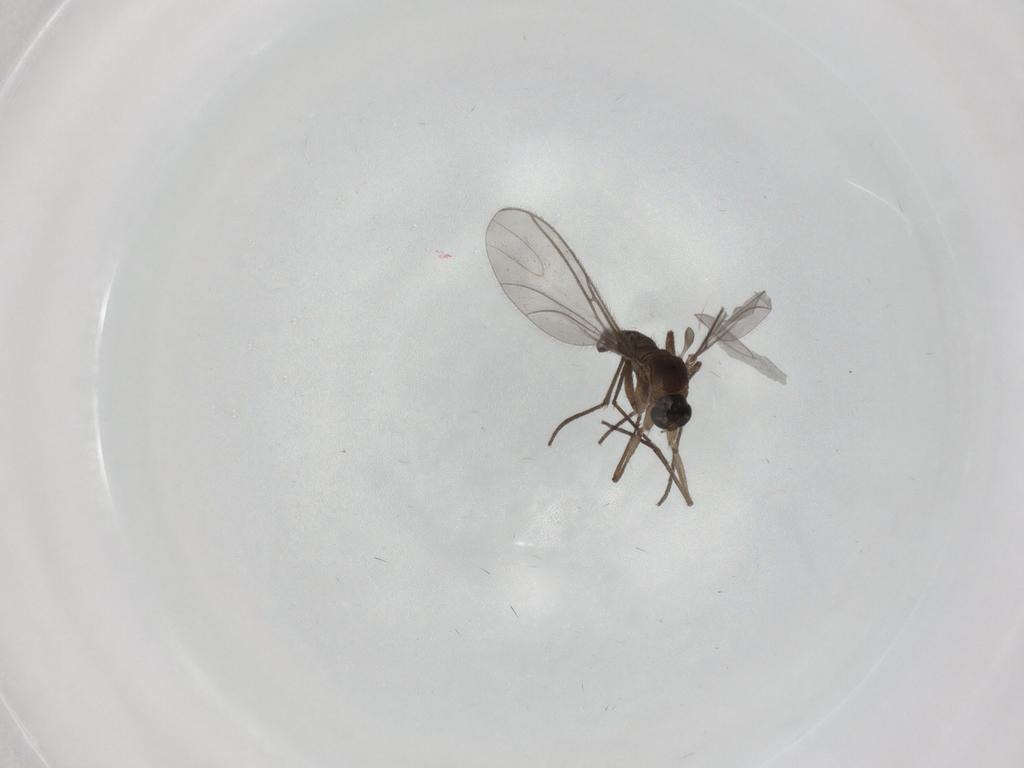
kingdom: Animalia
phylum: Arthropoda
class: Insecta
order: Diptera
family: Sciaridae
